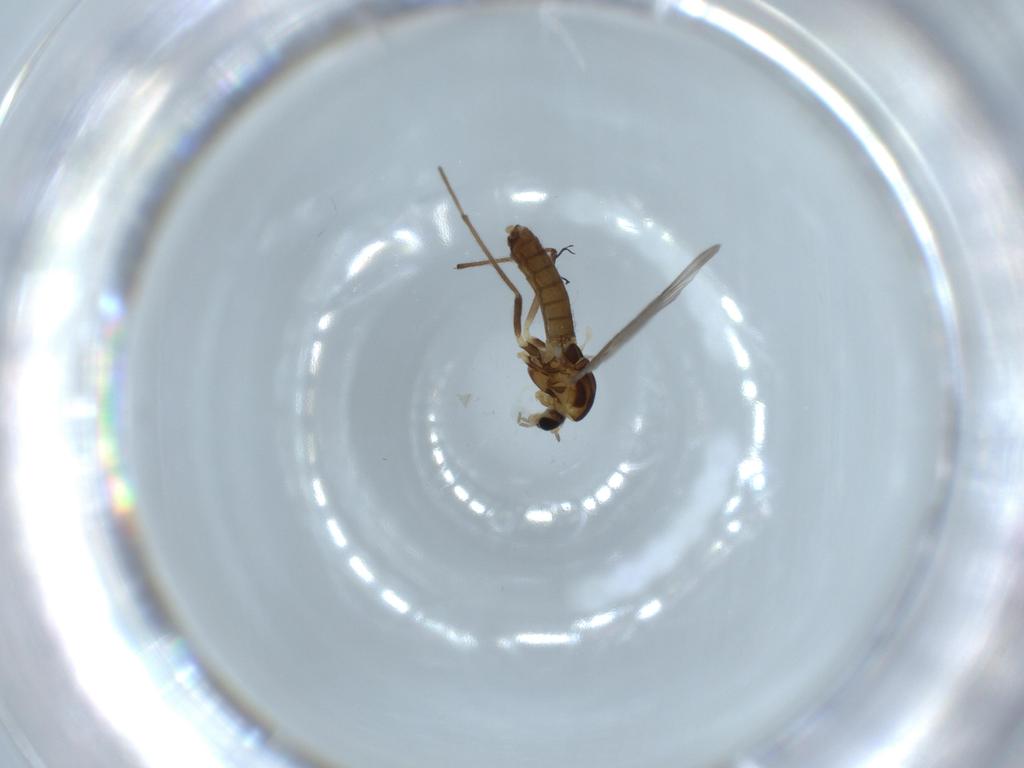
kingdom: Animalia
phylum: Arthropoda
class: Insecta
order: Diptera
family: Chironomidae
